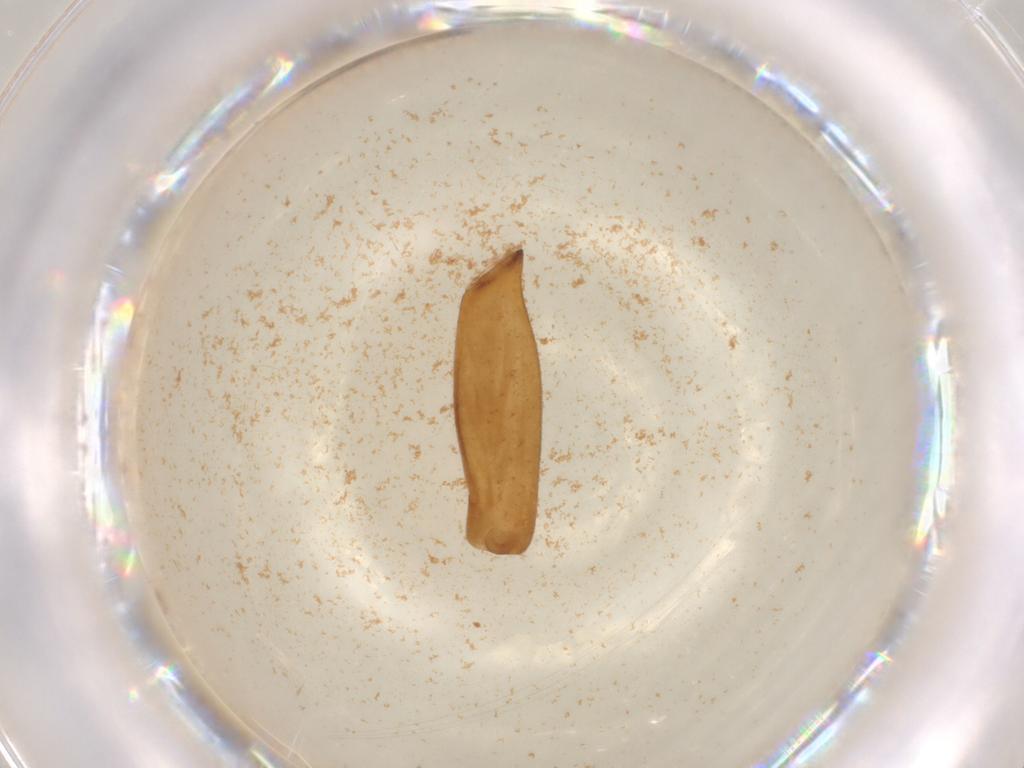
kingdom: Animalia
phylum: Arthropoda
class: Insecta
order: Coleoptera
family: Chrysomelidae
